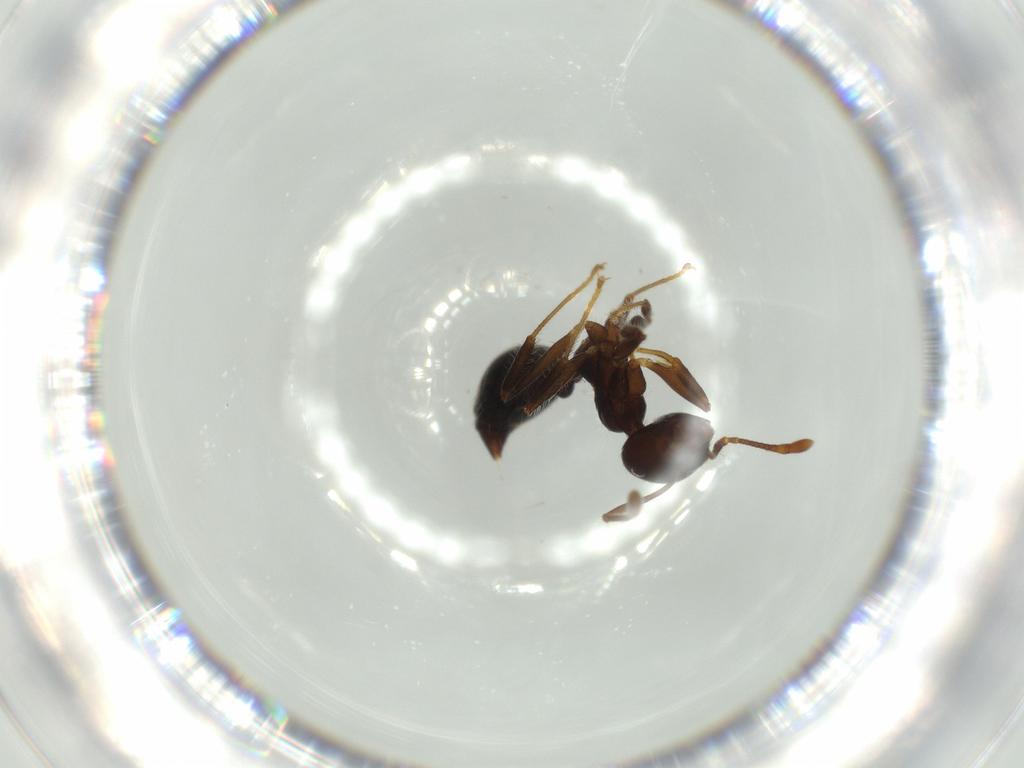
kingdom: Animalia
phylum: Arthropoda
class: Insecta
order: Hymenoptera
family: Formicidae
